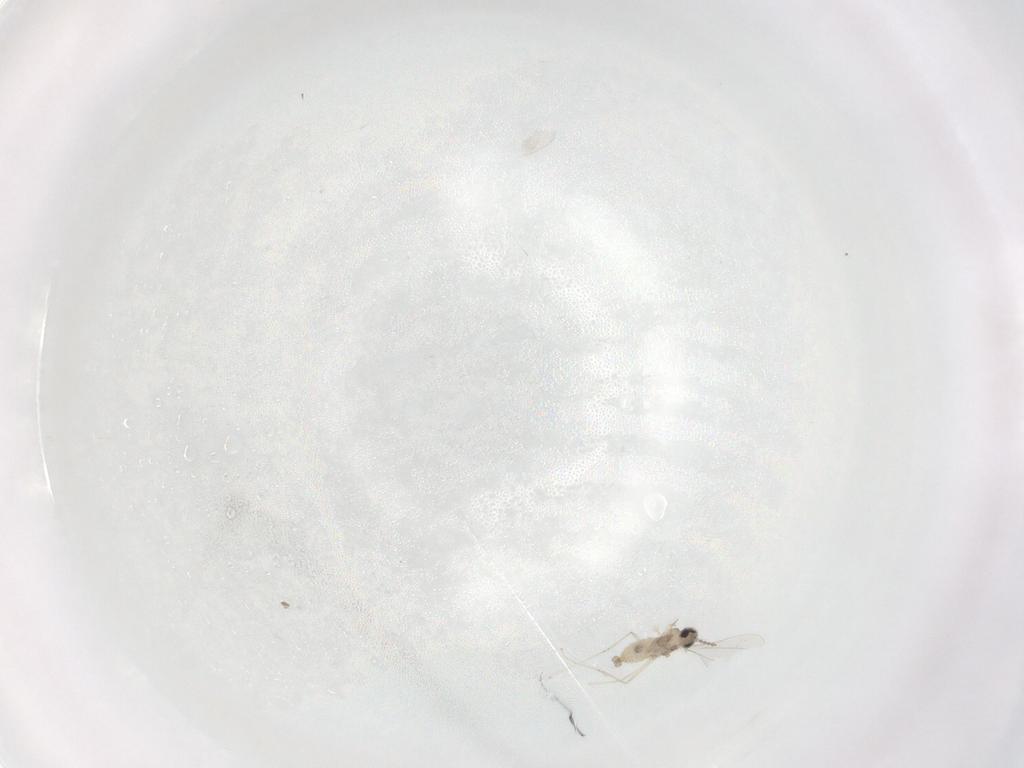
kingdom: Animalia
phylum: Arthropoda
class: Insecta
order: Diptera
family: Cecidomyiidae
